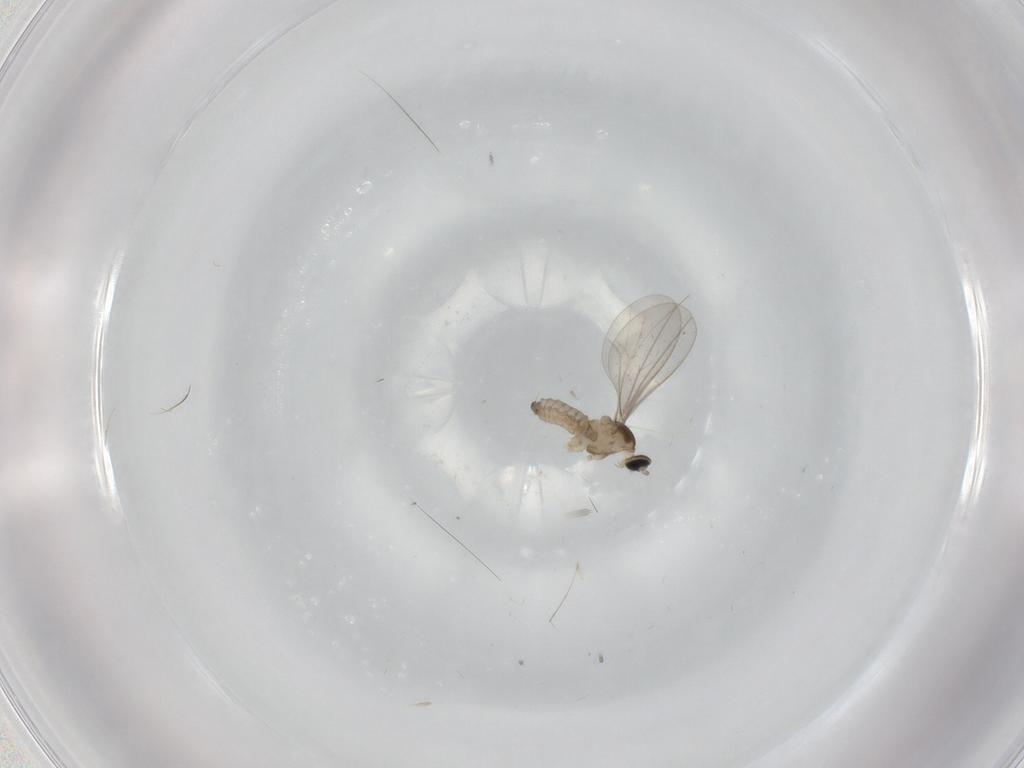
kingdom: Animalia
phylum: Arthropoda
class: Insecta
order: Diptera
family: Cecidomyiidae
